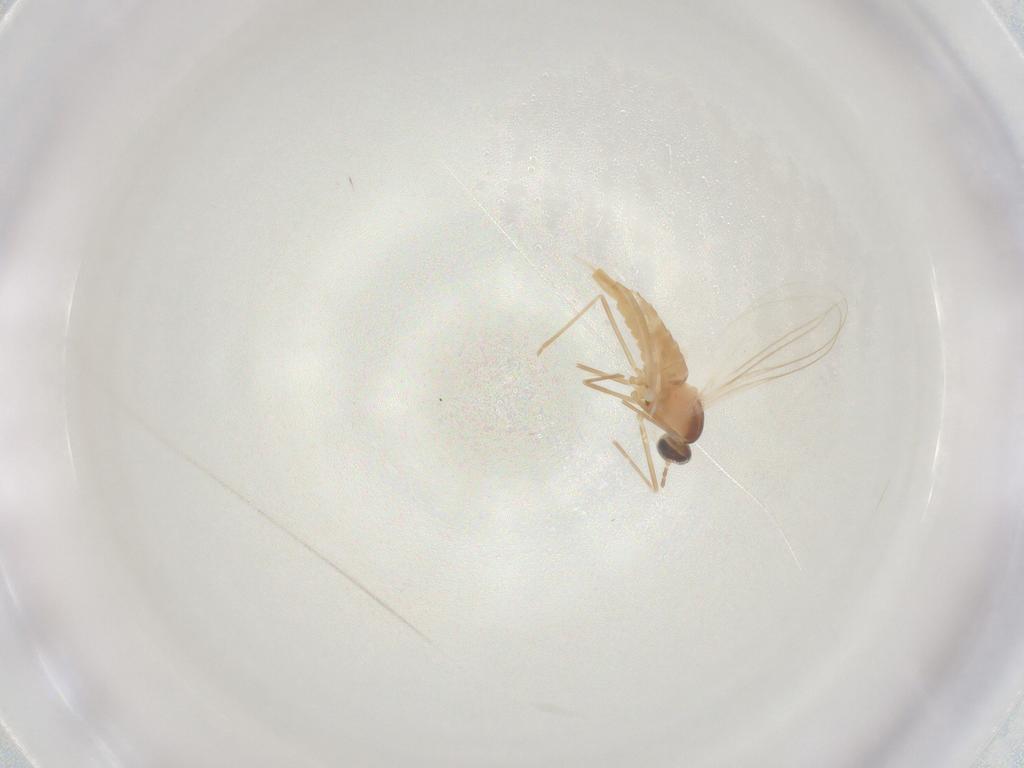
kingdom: Animalia
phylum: Arthropoda
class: Insecta
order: Diptera
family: Cecidomyiidae
